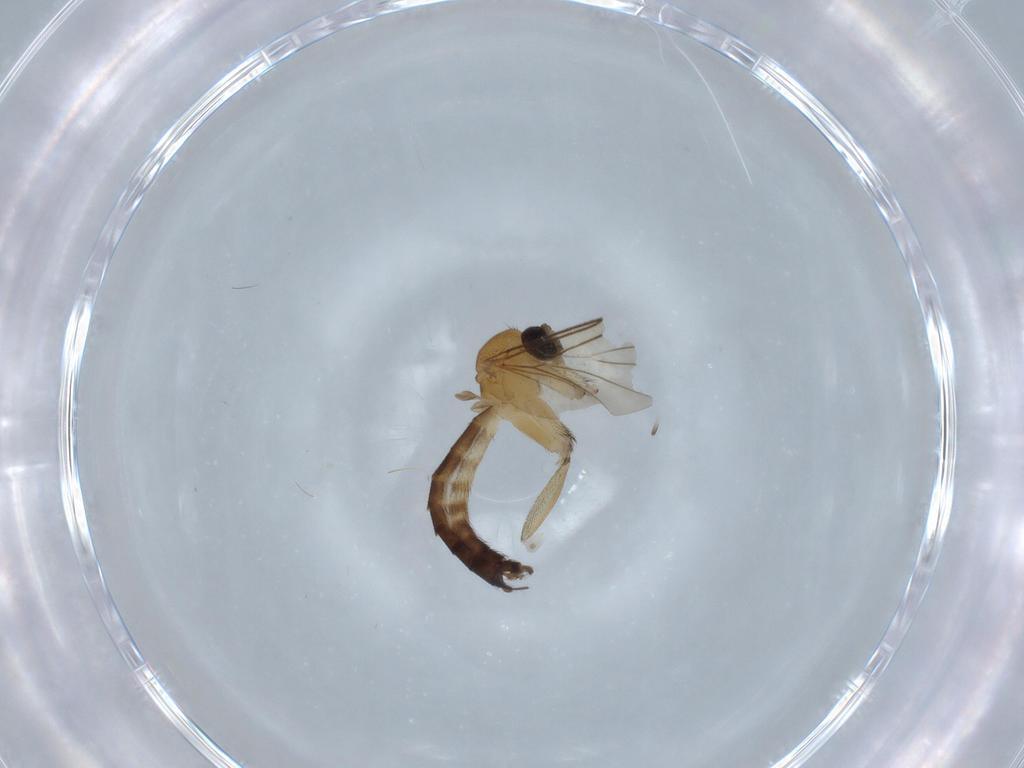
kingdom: Animalia
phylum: Arthropoda
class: Insecta
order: Diptera
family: Keroplatidae
